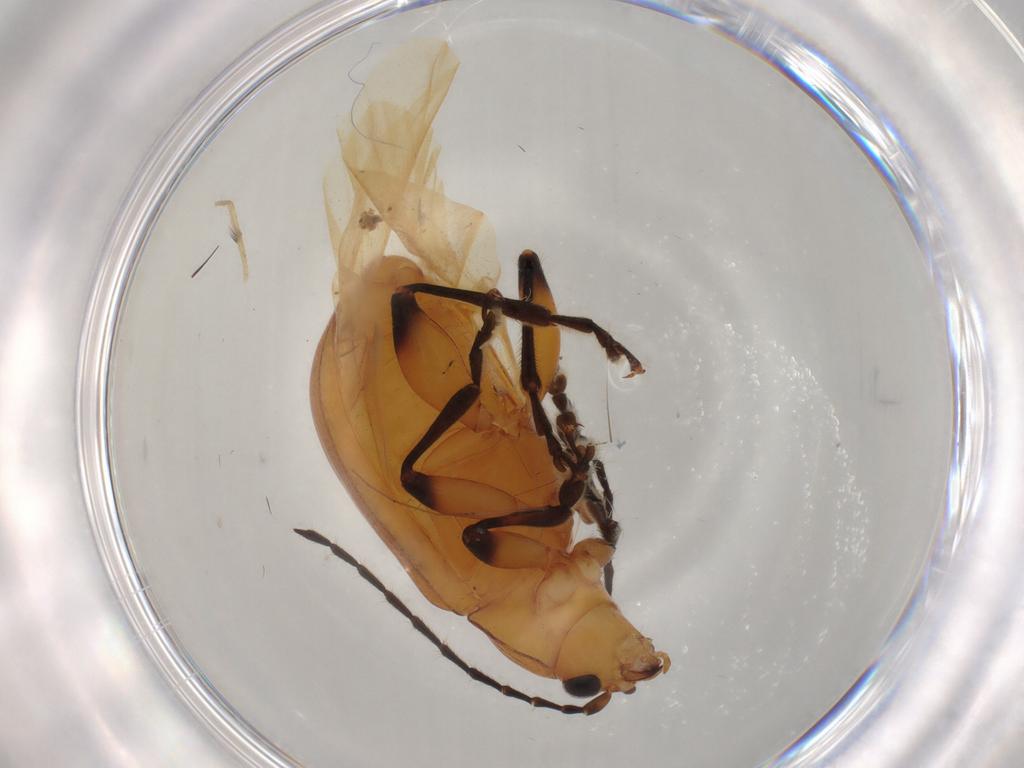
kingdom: Animalia
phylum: Arthropoda
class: Insecta
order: Coleoptera
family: Chrysomelidae
